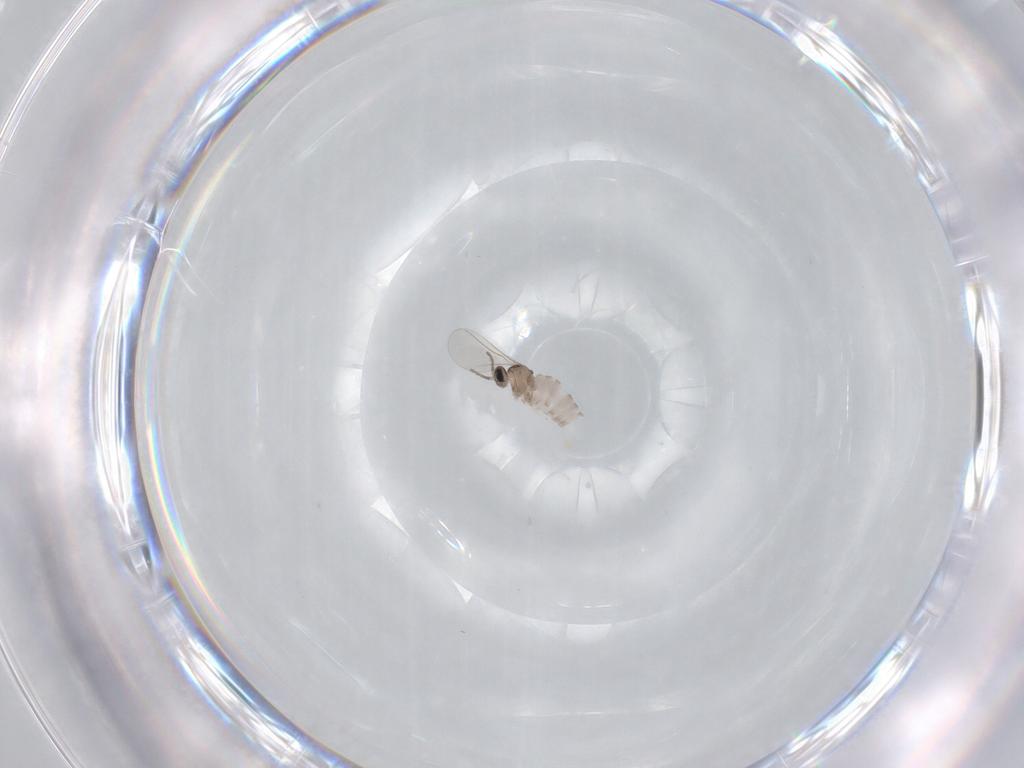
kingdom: Animalia
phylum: Arthropoda
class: Insecta
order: Diptera
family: Cecidomyiidae
